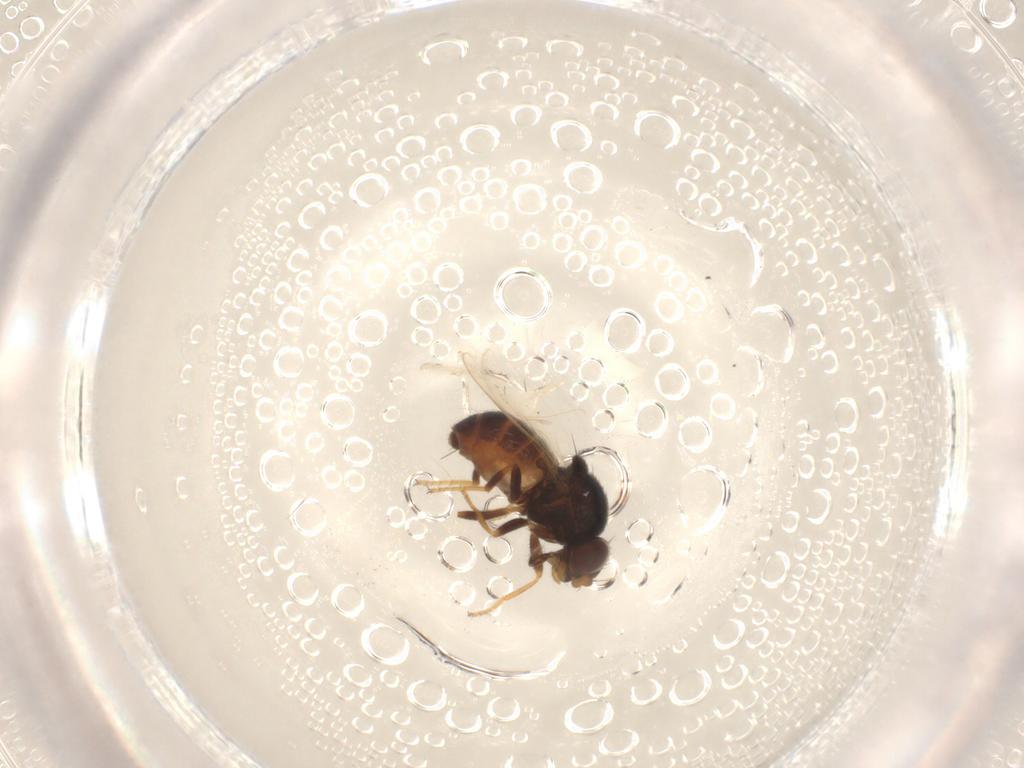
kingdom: Animalia
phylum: Arthropoda
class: Insecta
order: Diptera
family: Chloropidae
